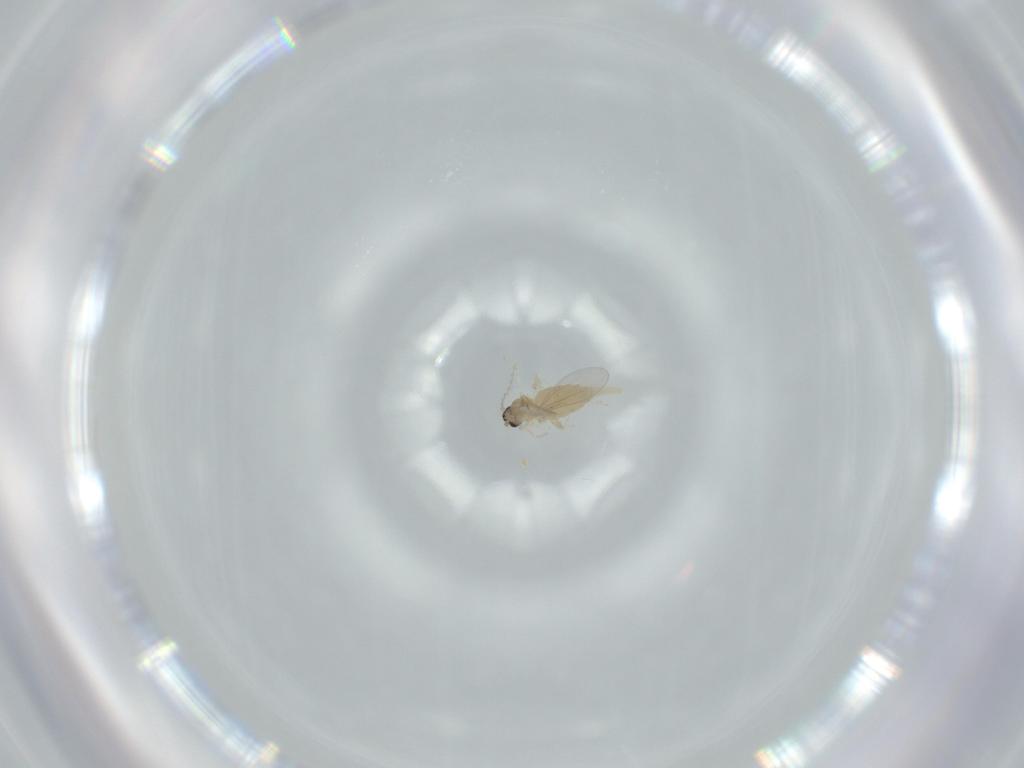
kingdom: Animalia
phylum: Arthropoda
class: Insecta
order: Diptera
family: Cecidomyiidae
